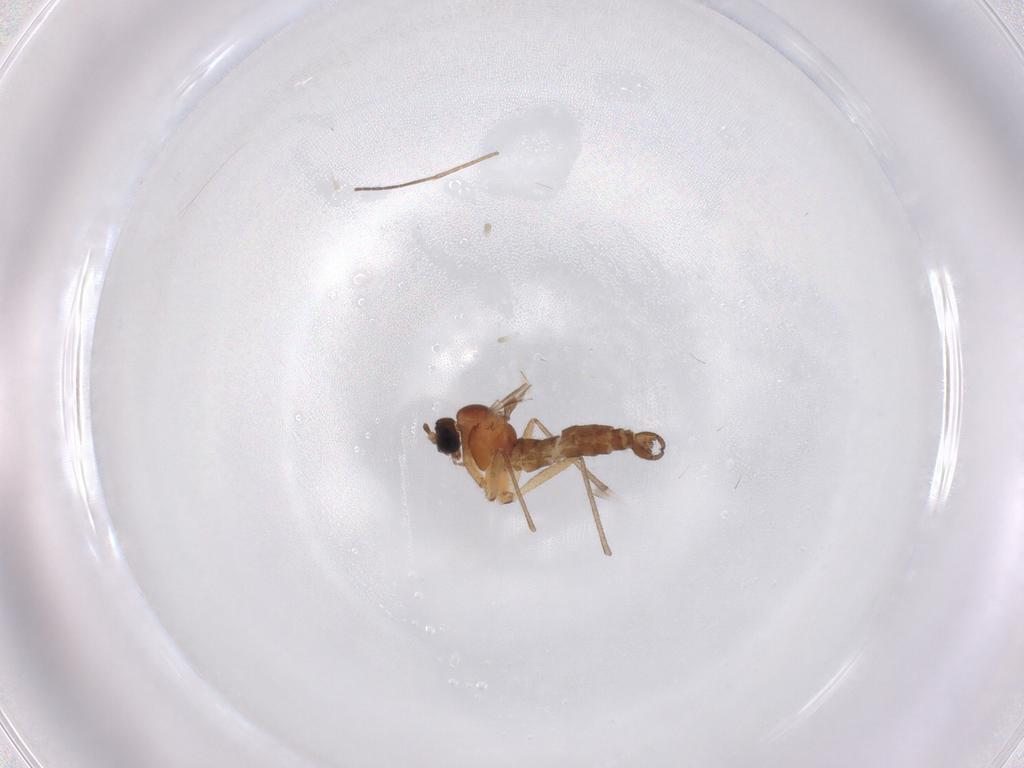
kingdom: Animalia
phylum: Arthropoda
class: Insecta
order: Diptera
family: Sciaridae
